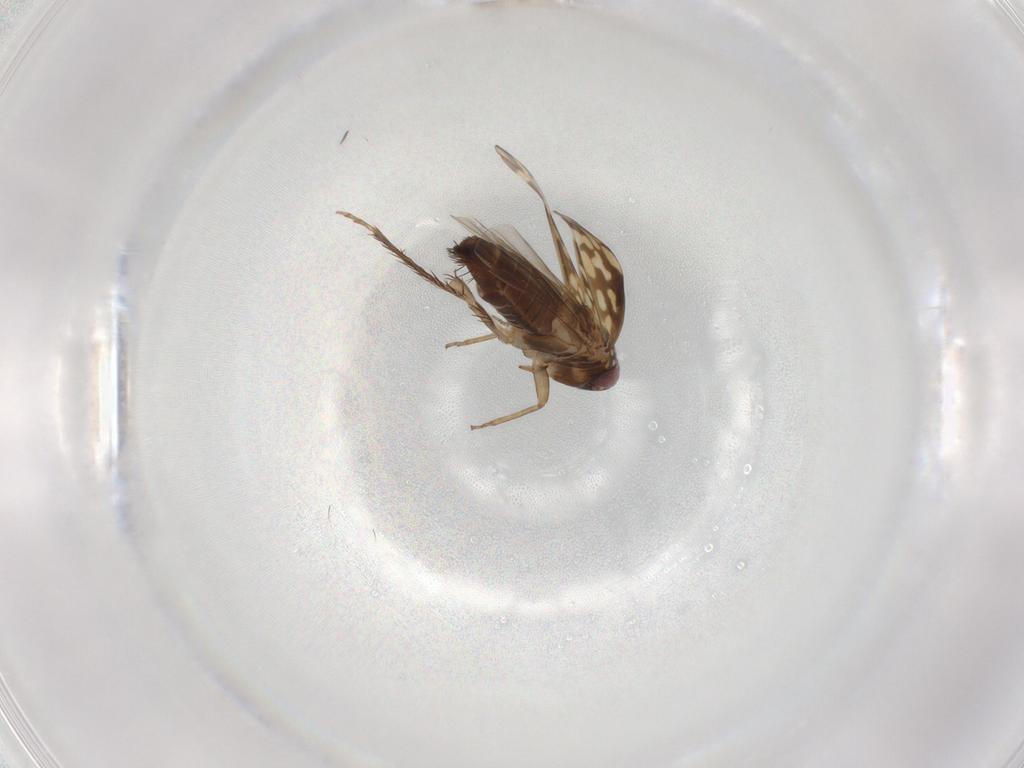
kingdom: Animalia
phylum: Arthropoda
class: Insecta
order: Hemiptera
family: Cicadellidae
